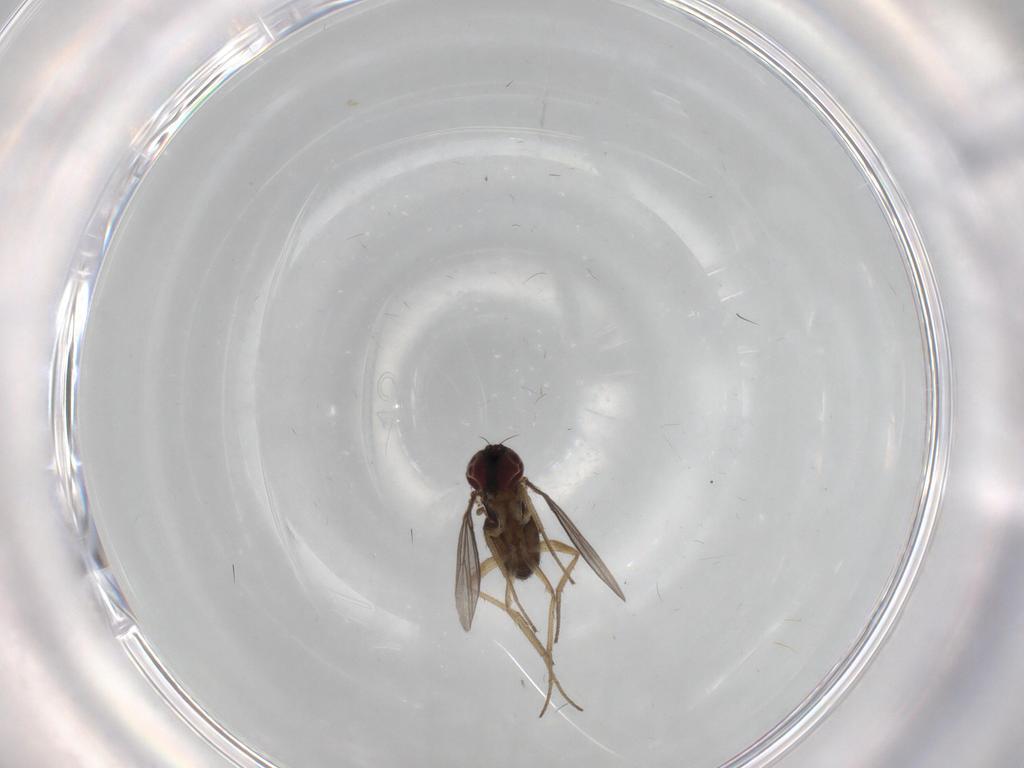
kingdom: Animalia
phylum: Arthropoda
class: Insecta
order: Diptera
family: Dolichopodidae
